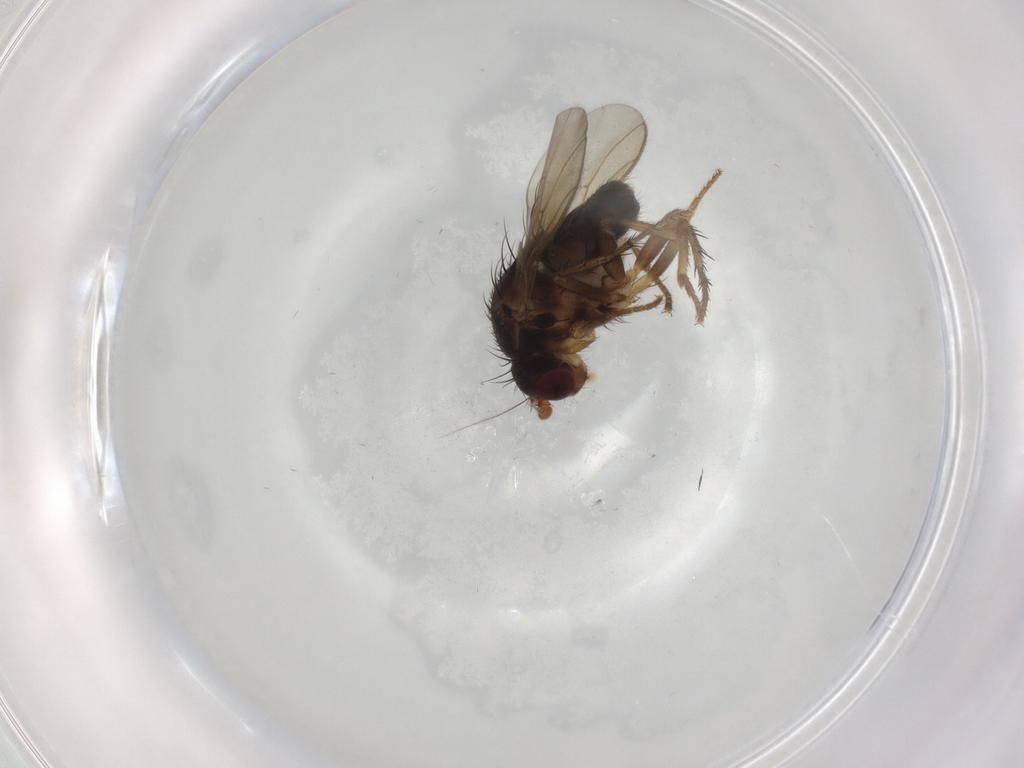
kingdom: Animalia
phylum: Arthropoda
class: Insecta
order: Diptera
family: Sphaeroceridae
